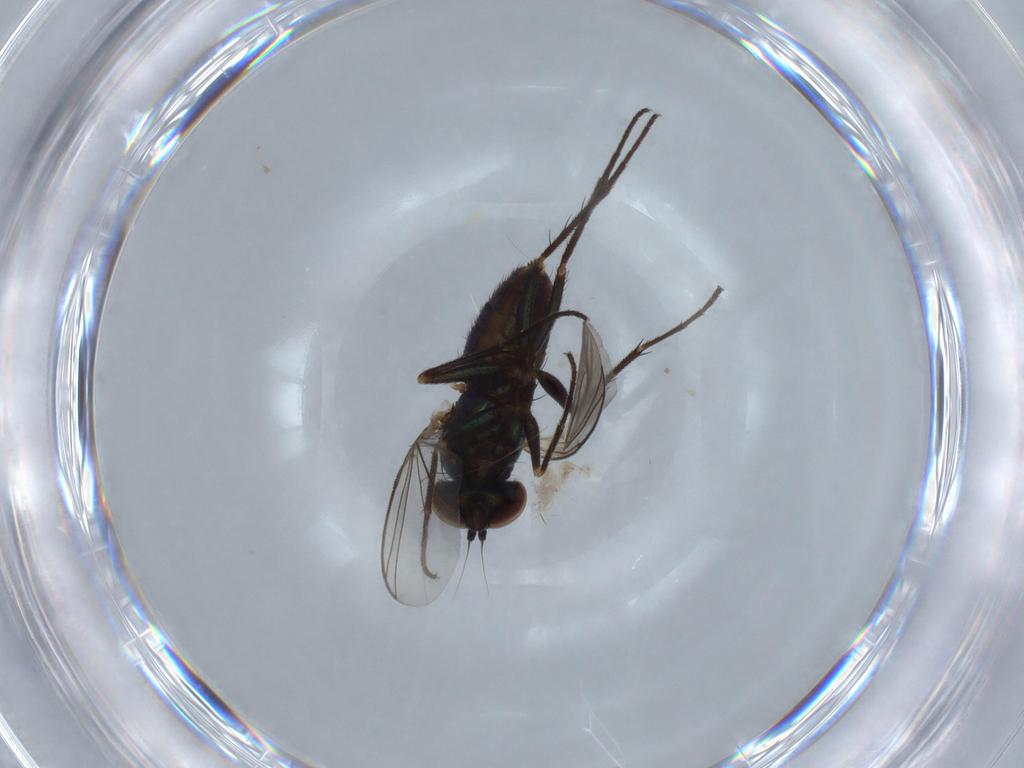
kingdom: Animalia
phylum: Arthropoda
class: Insecta
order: Diptera
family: Dolichopodidae
